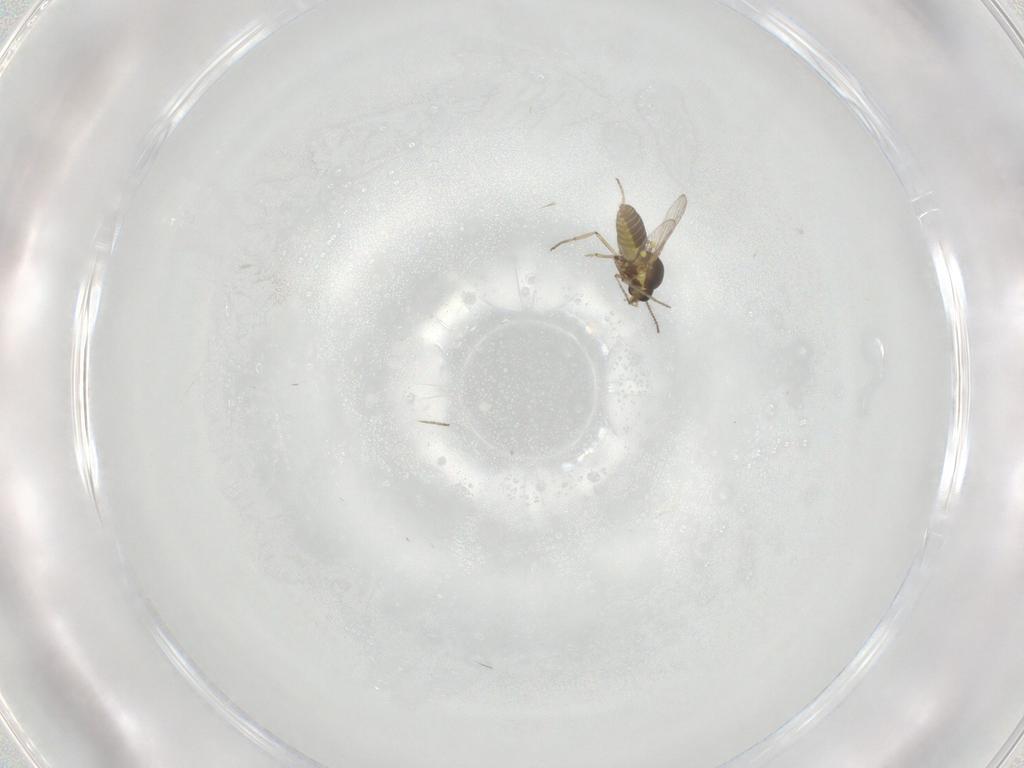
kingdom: Animalia
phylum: Arthropoda
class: Insecta
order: Diptera
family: Ceratopogonidae
